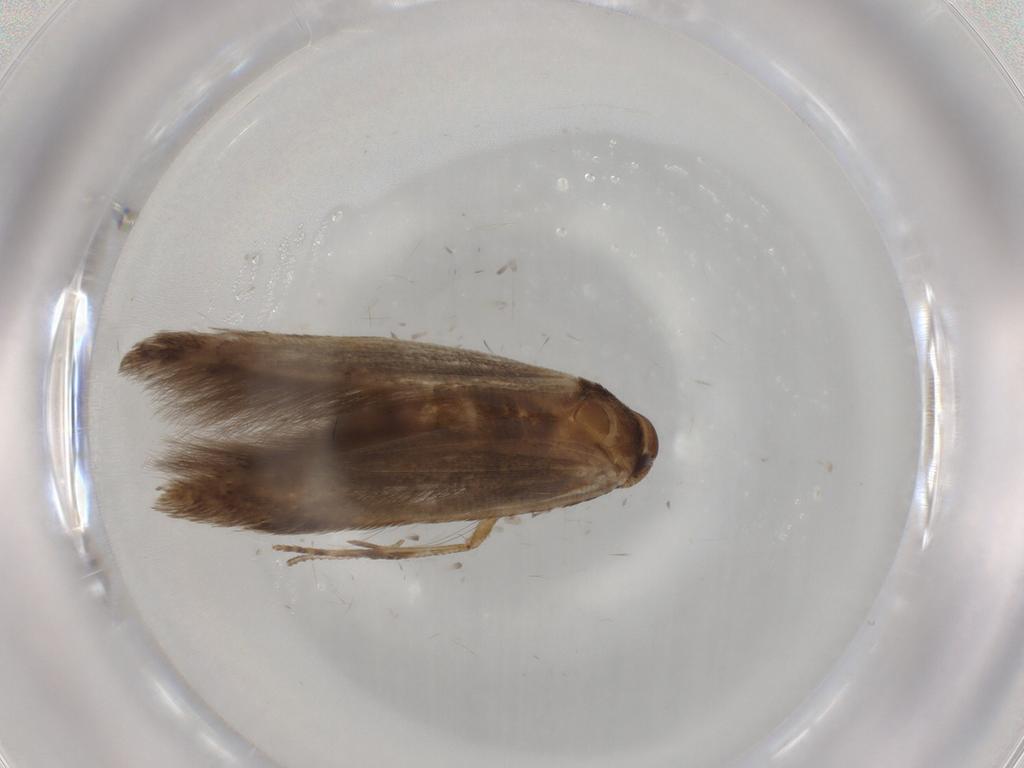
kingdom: Animalia
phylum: Arthropoda
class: Insecta
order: Lepidoptera
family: Cosmopterigidae
